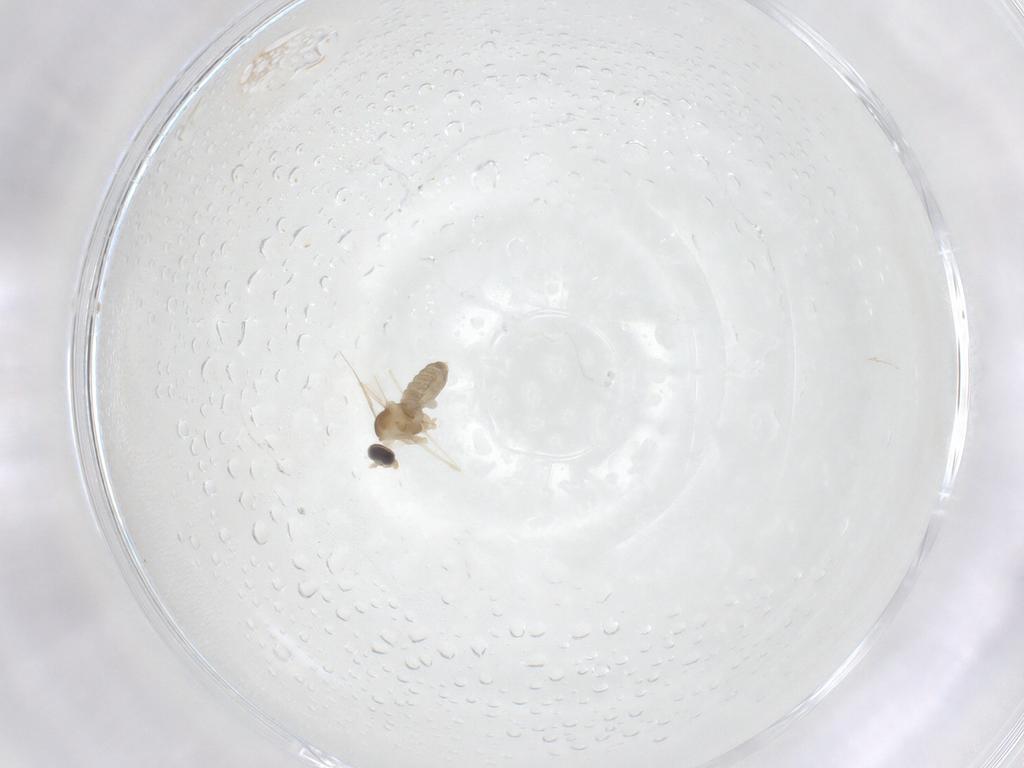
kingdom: Animalia
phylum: Arthropoda
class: Insecta
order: Diptera
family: Cecidomyiidae
